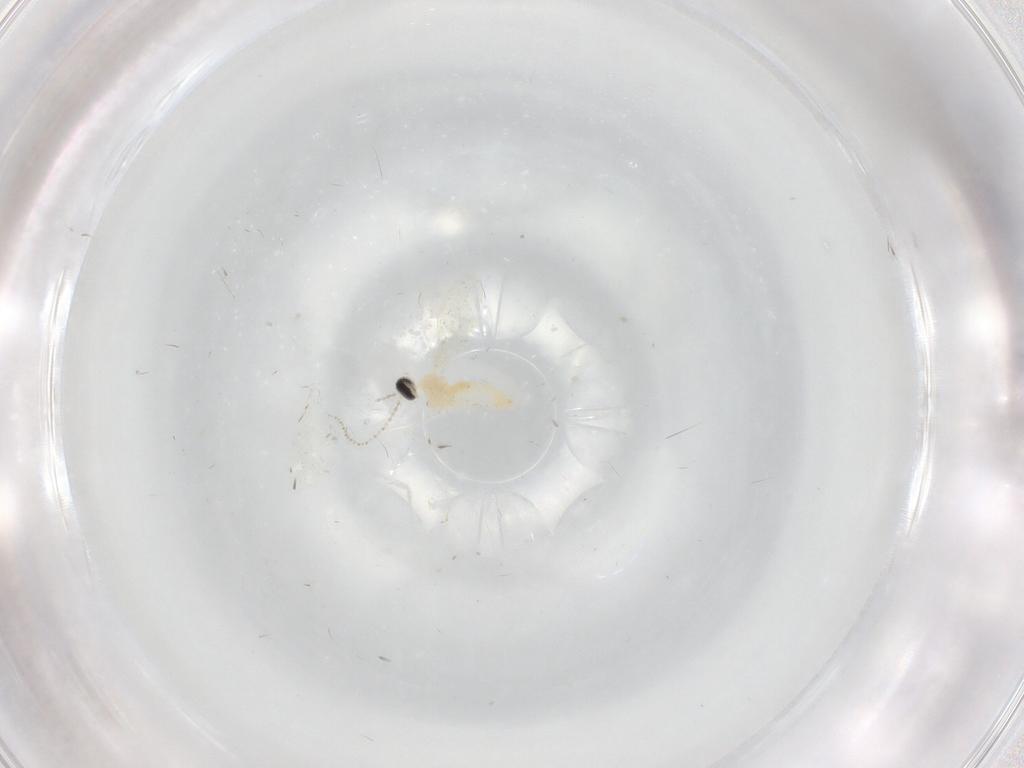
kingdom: Animalia
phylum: Arthropoda
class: Insecta
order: Diptera
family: Cecidomyiidae
